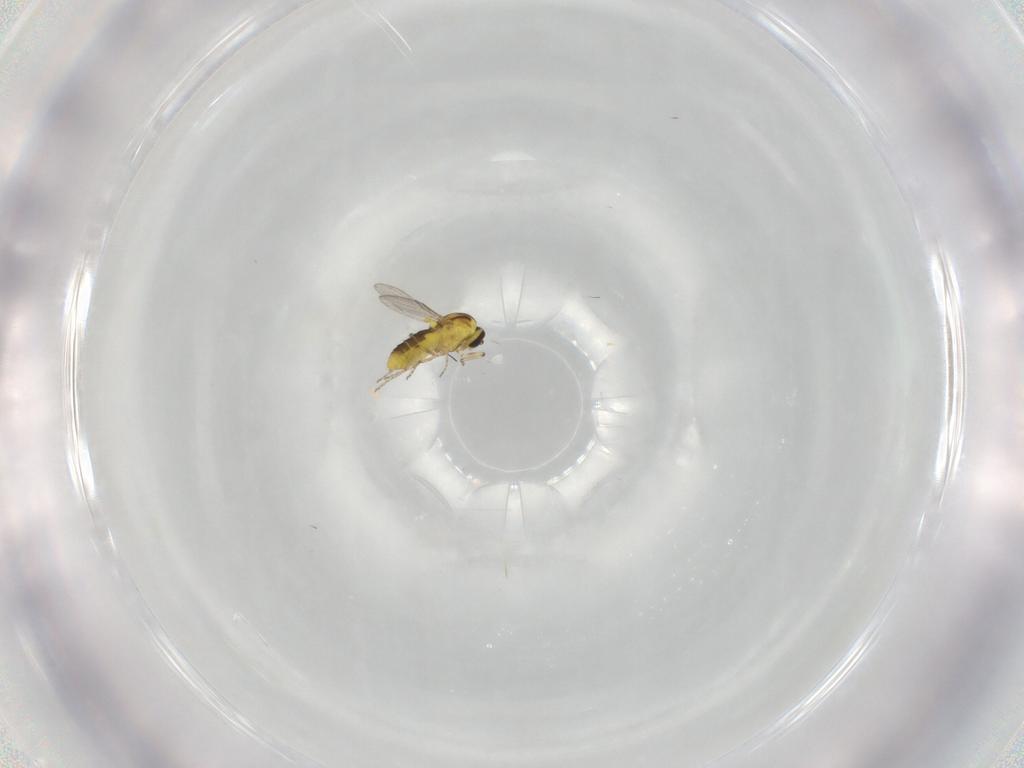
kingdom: Animalia
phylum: Arthropoda
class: Insecta
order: Diptera
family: Ceratopogonidae
